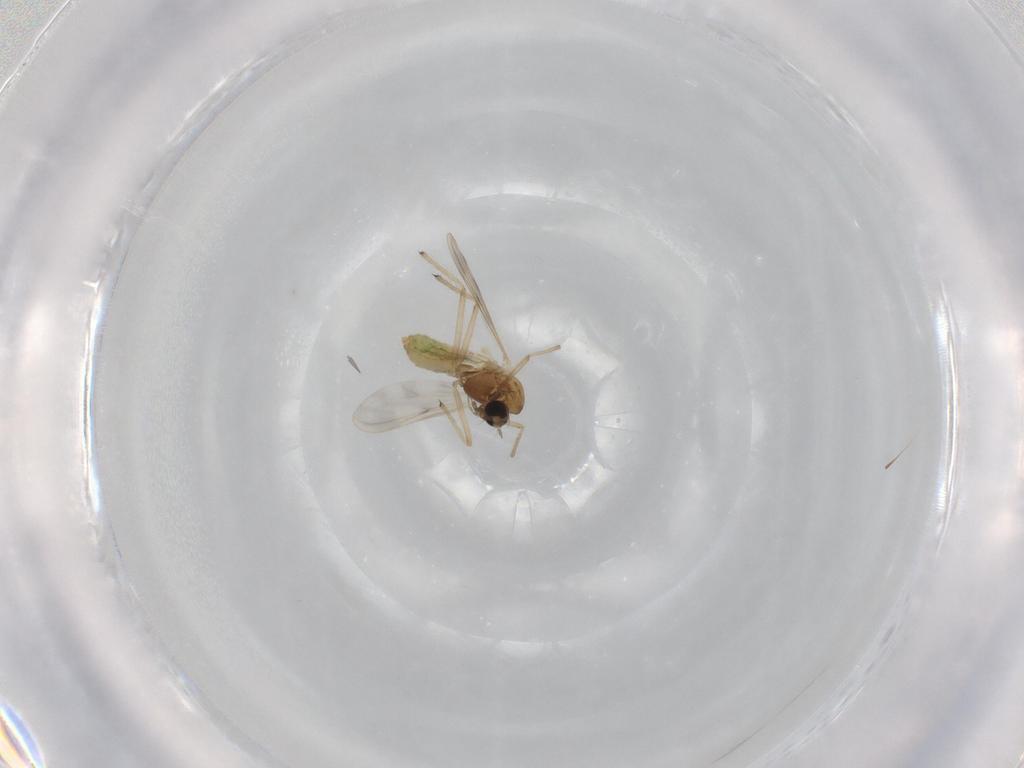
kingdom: Animalia
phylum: Arthropoda
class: Insecta
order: Diptera
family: Chironomidae
